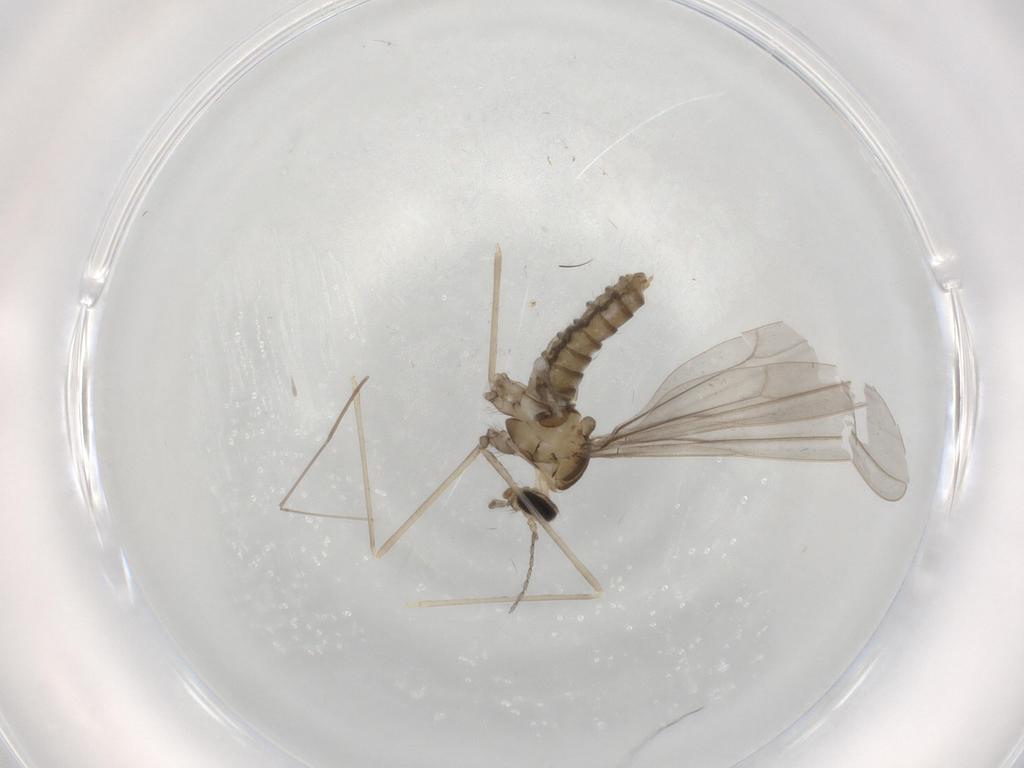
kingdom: Animalia
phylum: Arthropoda
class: Insecta
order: Diptera
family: Cecidomyiidae
